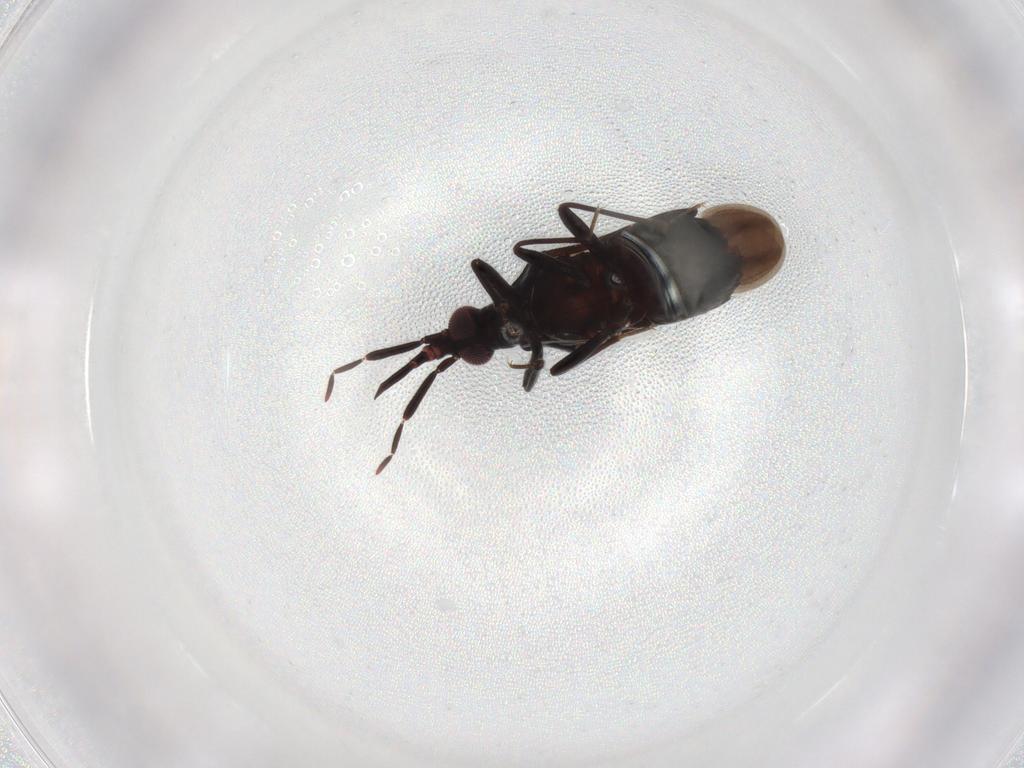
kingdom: Animalia
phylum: Arthropoda
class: Insecta
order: Hemiptera
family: Anthocoridae
